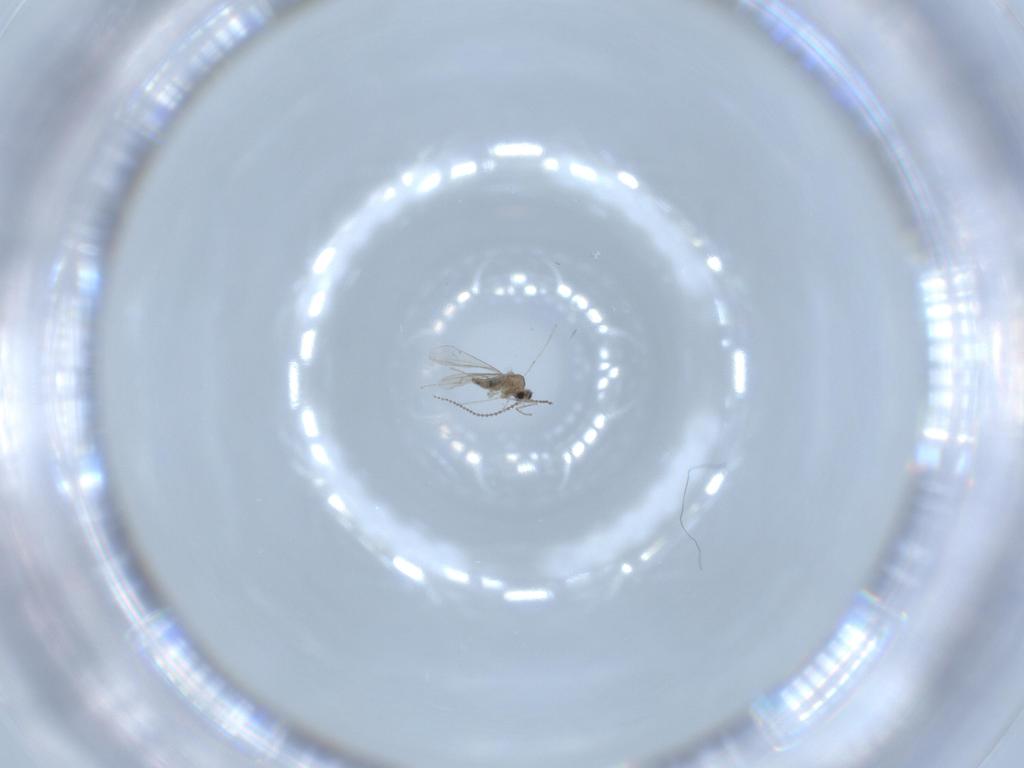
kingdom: Animalia
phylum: Arthropoda
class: Insecta
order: Diptera
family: Cecidomyiidae
